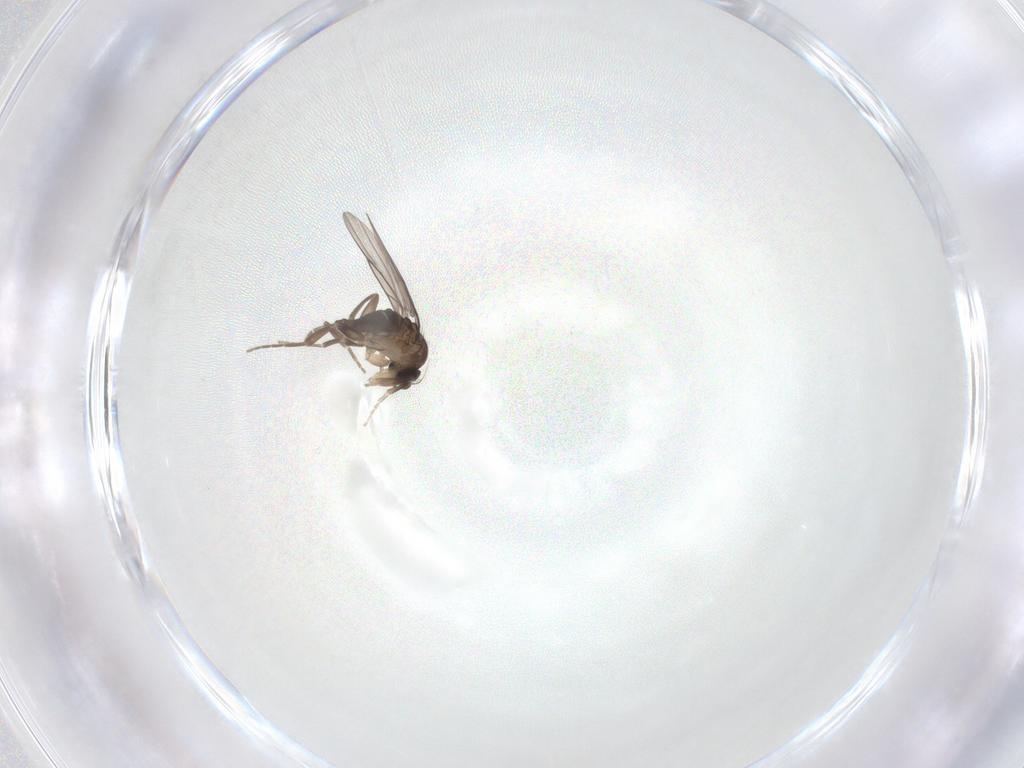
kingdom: Animalia
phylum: Arthropoda
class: Insecta
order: Diptera
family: Phoridae
